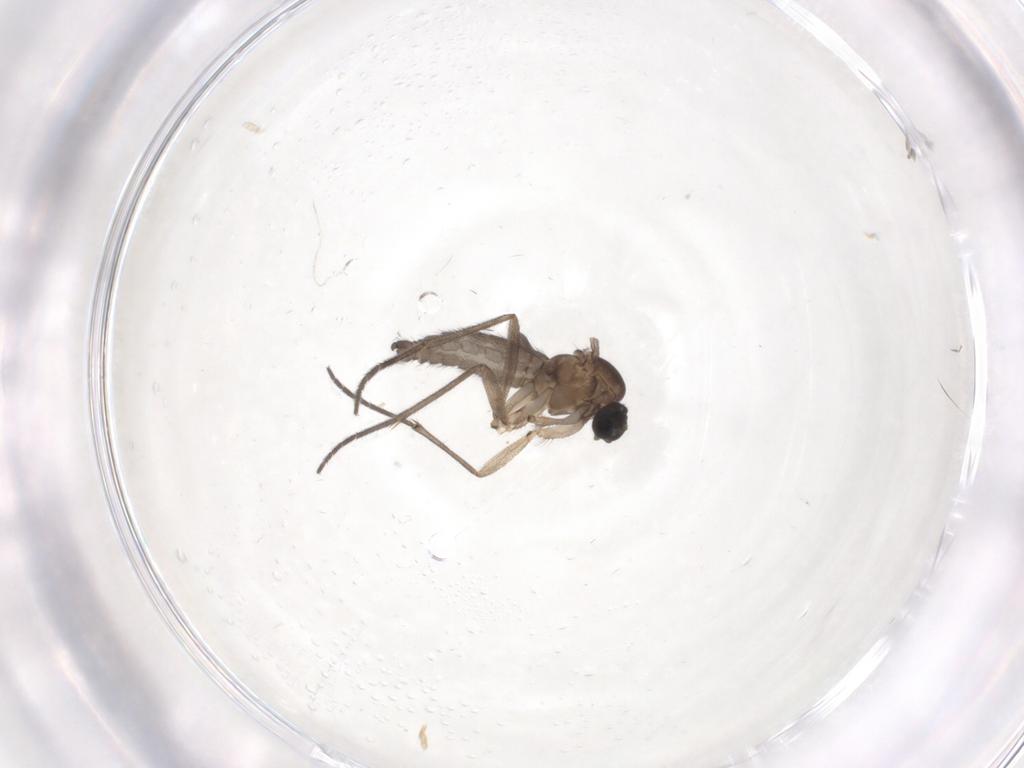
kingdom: Animalia
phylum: Arthropoda
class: Insecta
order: Diptera
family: Sciaridae
